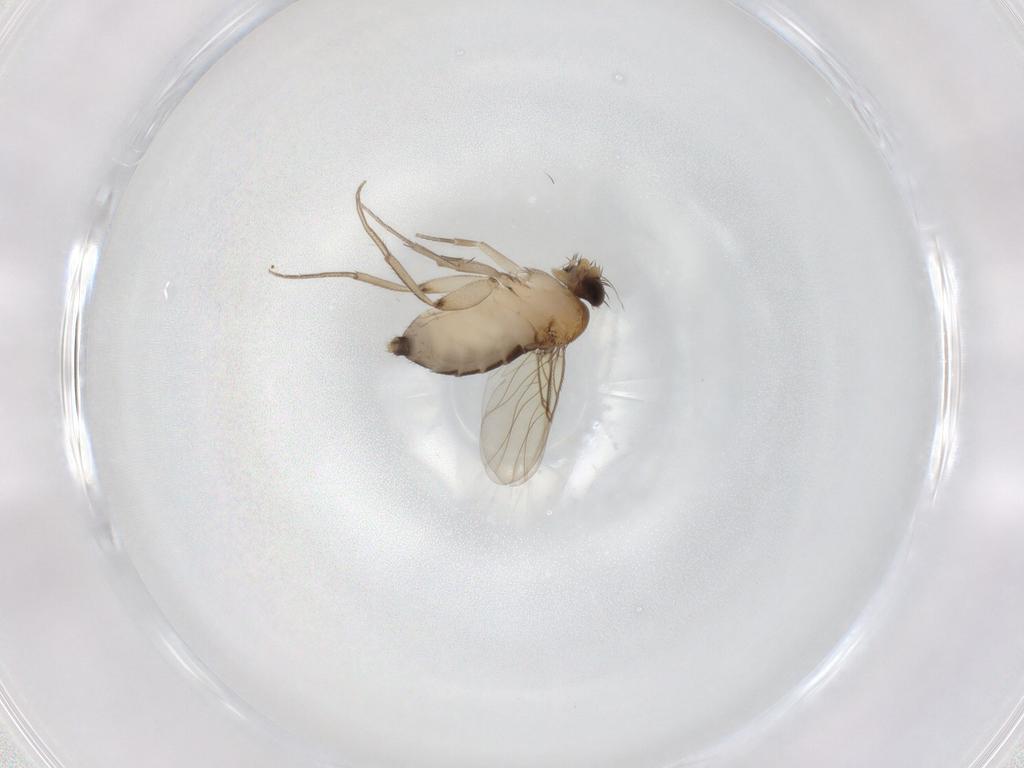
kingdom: Animalia
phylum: Arthropoda
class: Insecta
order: Diptera
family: Phoridae
